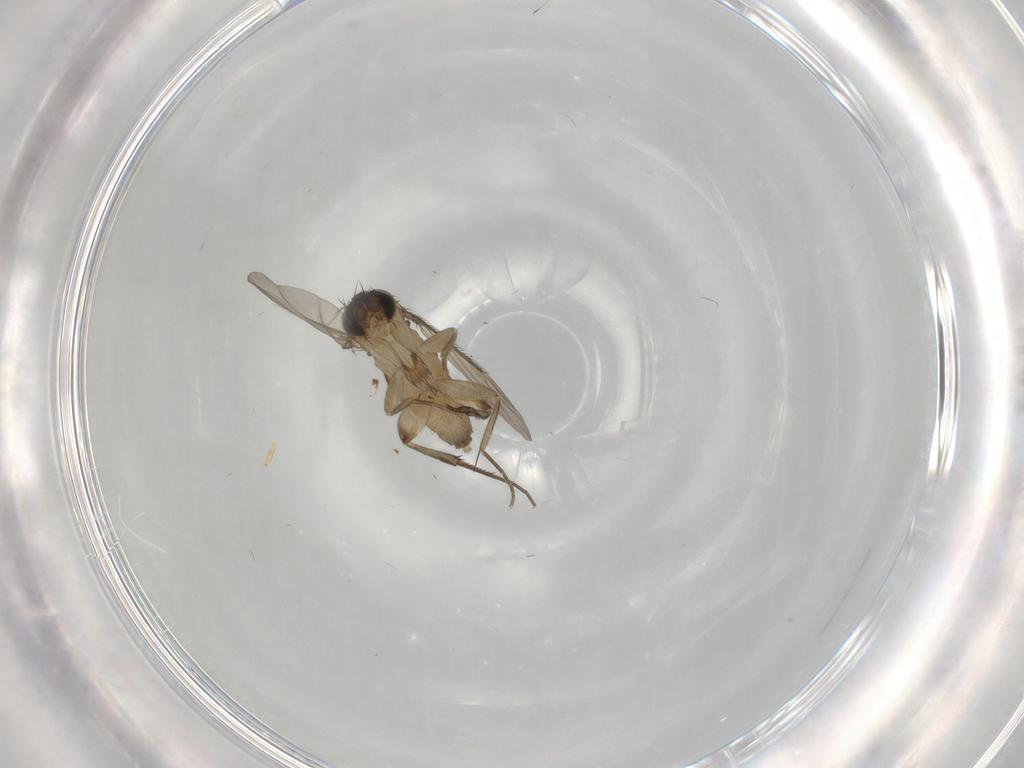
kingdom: Animalia
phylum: Arthropoda
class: Insecta
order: Diptera
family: Phoridae
